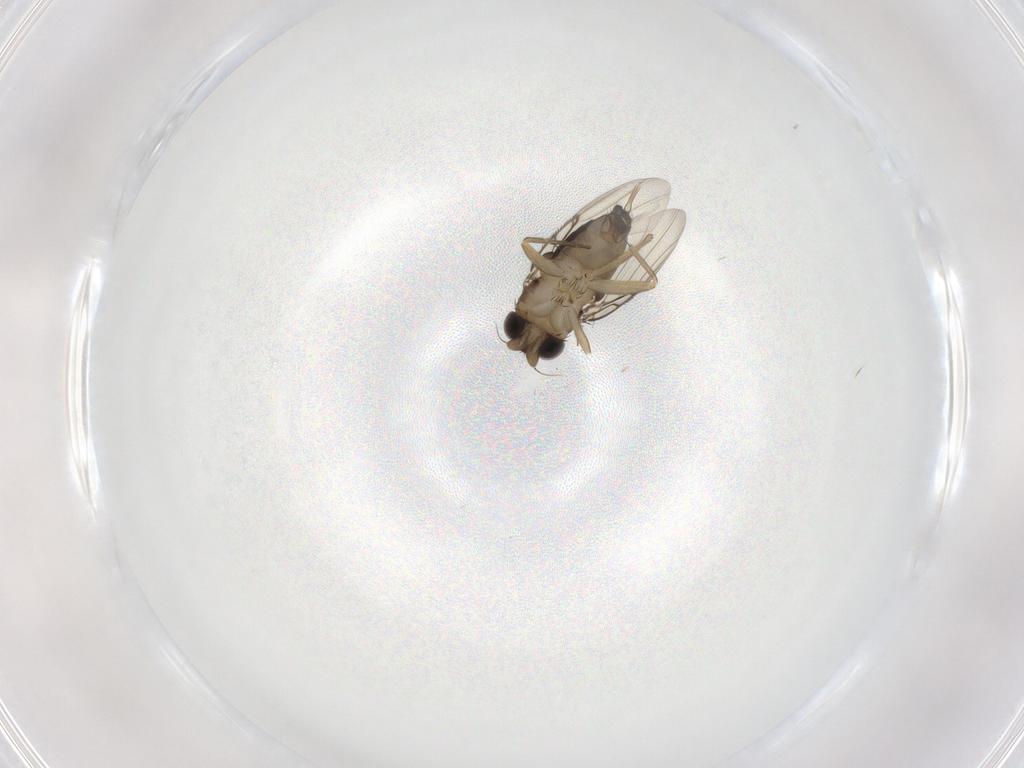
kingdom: Animalia
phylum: Arthropoda
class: Insecta
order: Diptera
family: Phoridae
